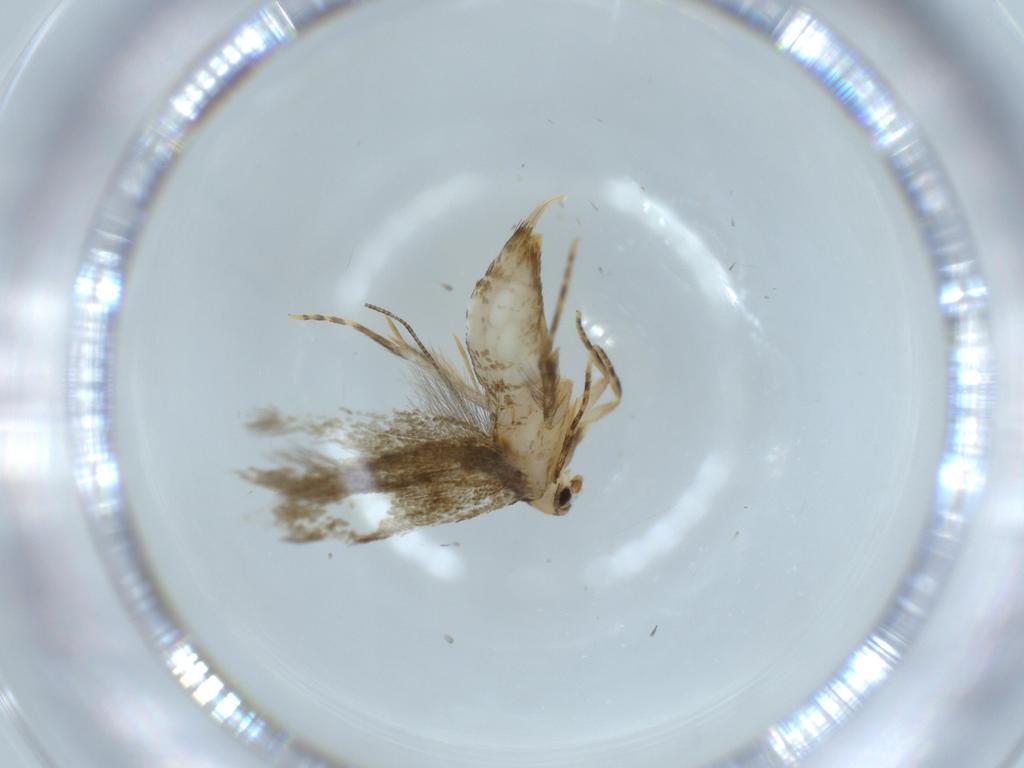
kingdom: Animalia
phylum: Arthropoda
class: Insecta
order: Lepidoptera
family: Tineidae
